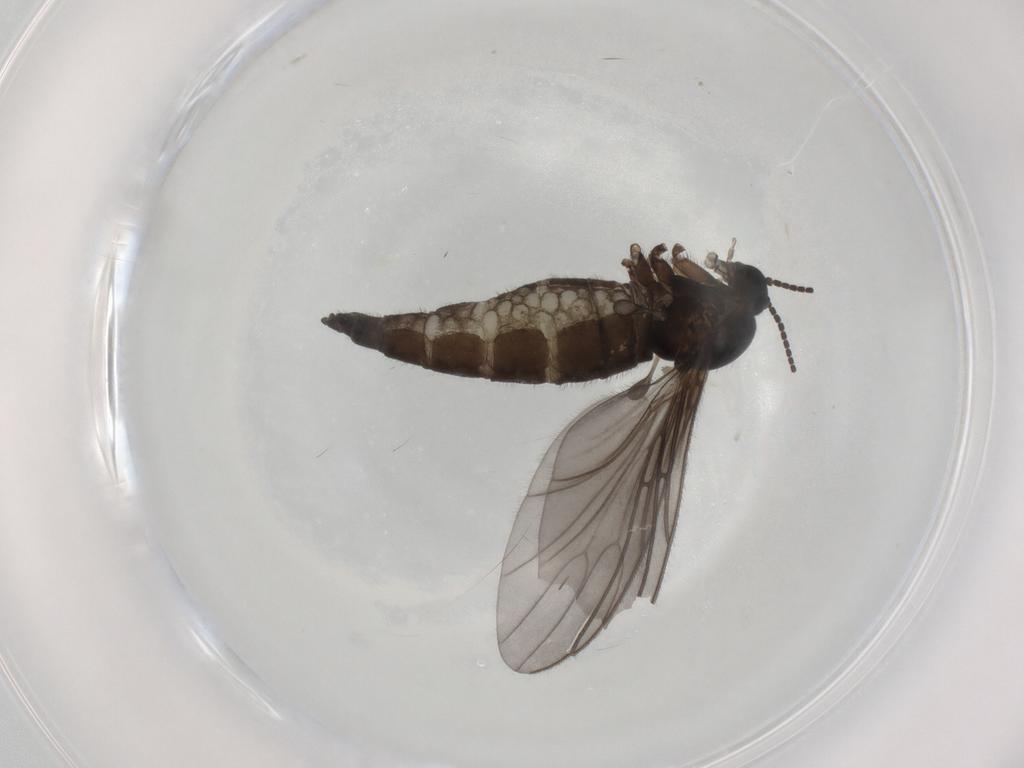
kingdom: Animalia
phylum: Arthropoda
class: Insecta
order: Diptera
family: Sciaridae
